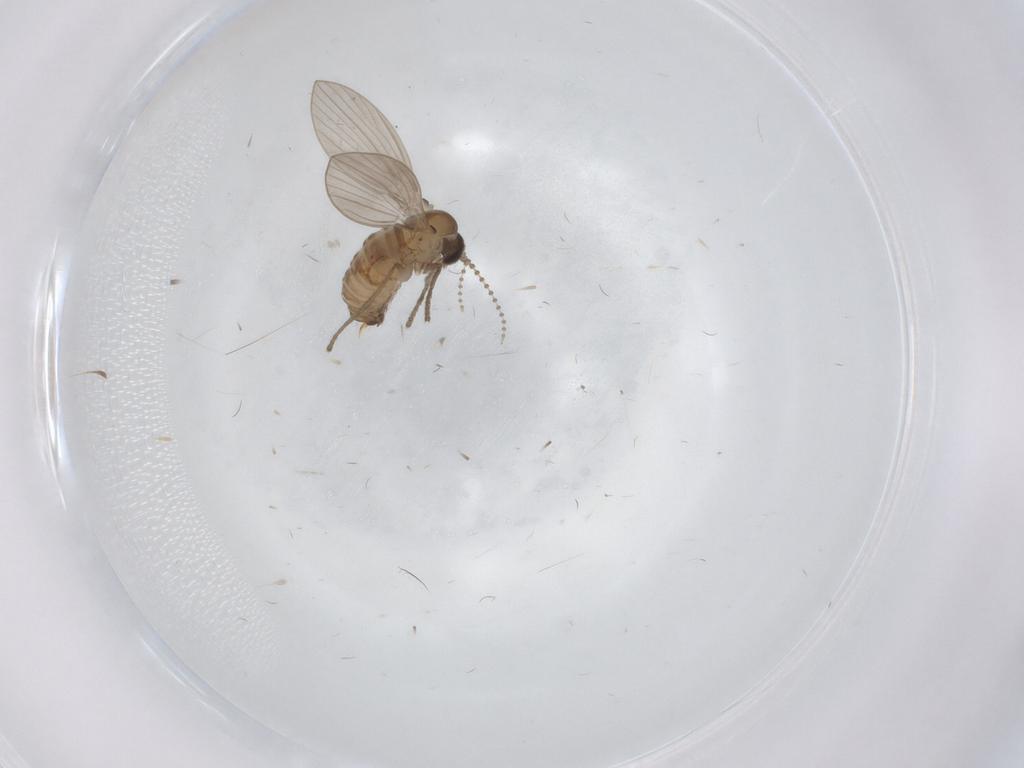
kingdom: Animalia
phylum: Arthropoda
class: Insecta
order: Diptera
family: Psychodidae
